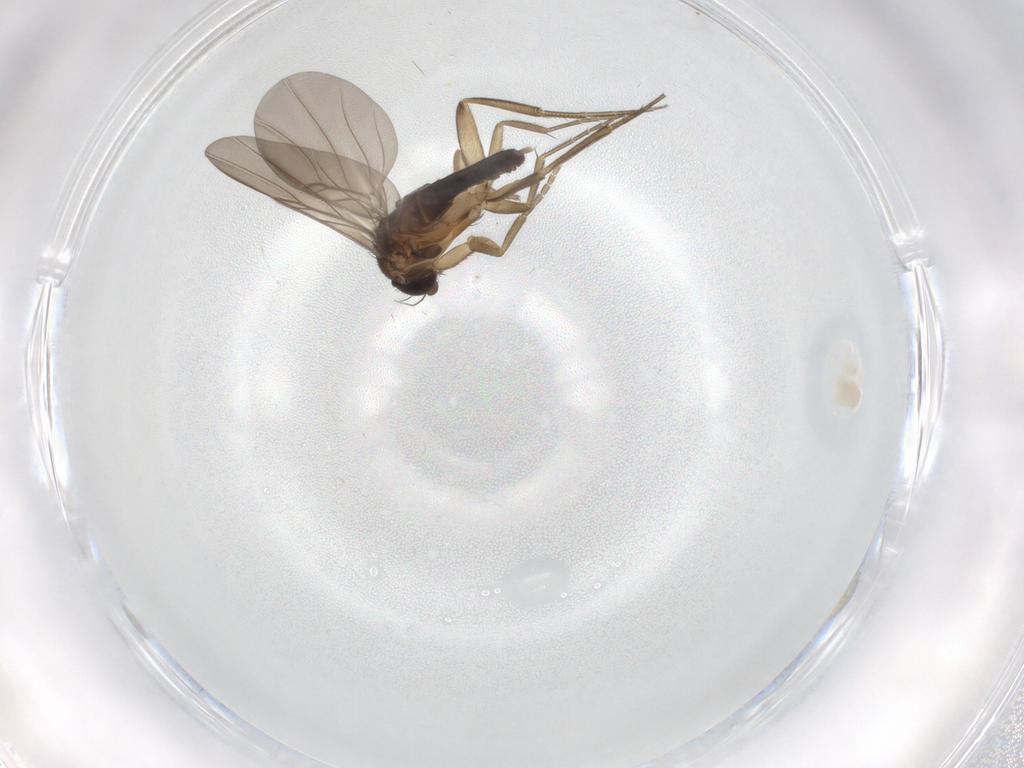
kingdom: Animalia
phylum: Arthropoda
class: Insecta
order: Diptera
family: Phoridae
